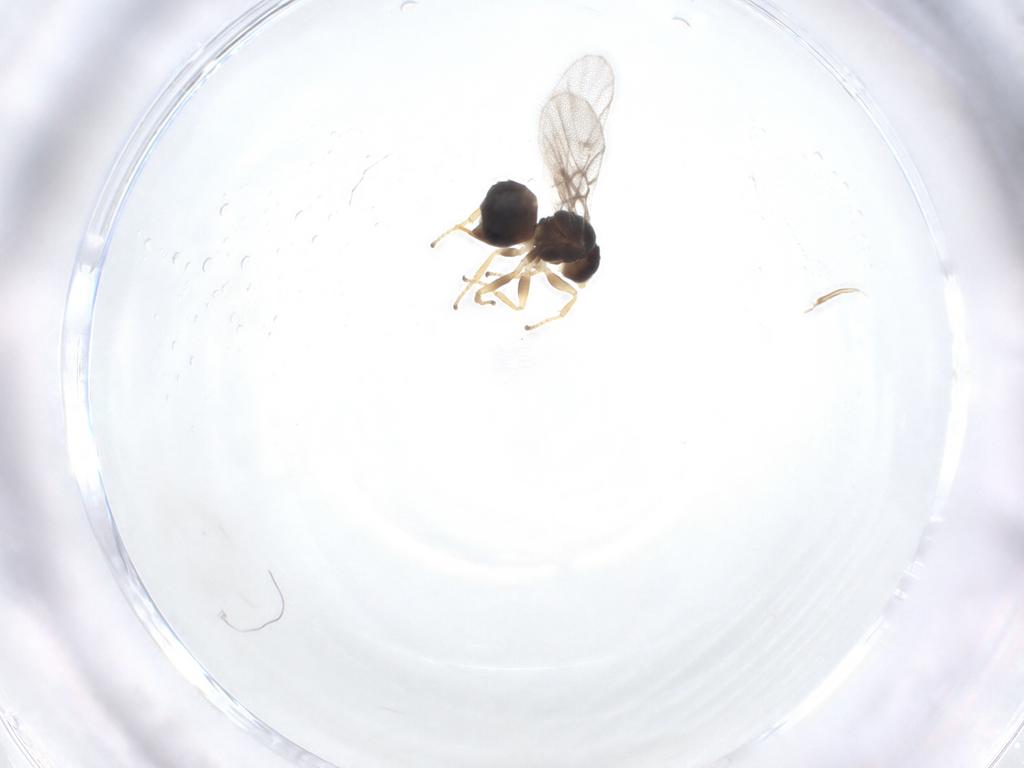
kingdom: Animalia
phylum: Arthropoda
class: Insecta
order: Hymenoptera
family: Cynipidae
